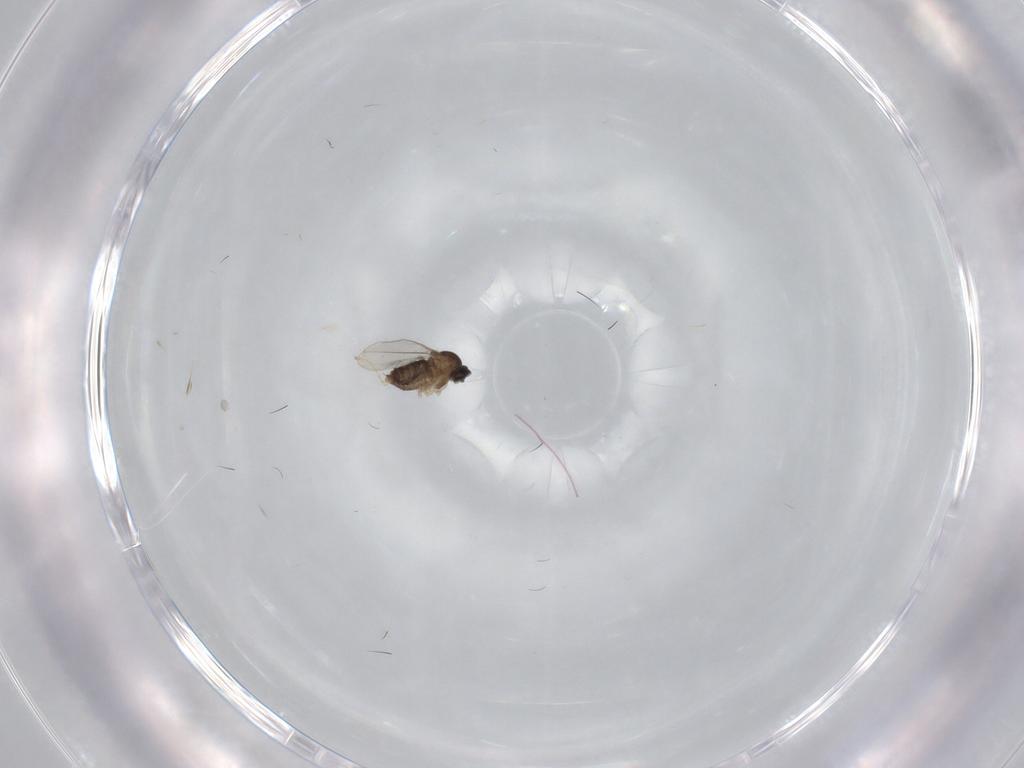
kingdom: Animalia
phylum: Arthropoda
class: Insecta
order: Diptera
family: Cecidomyiidae
